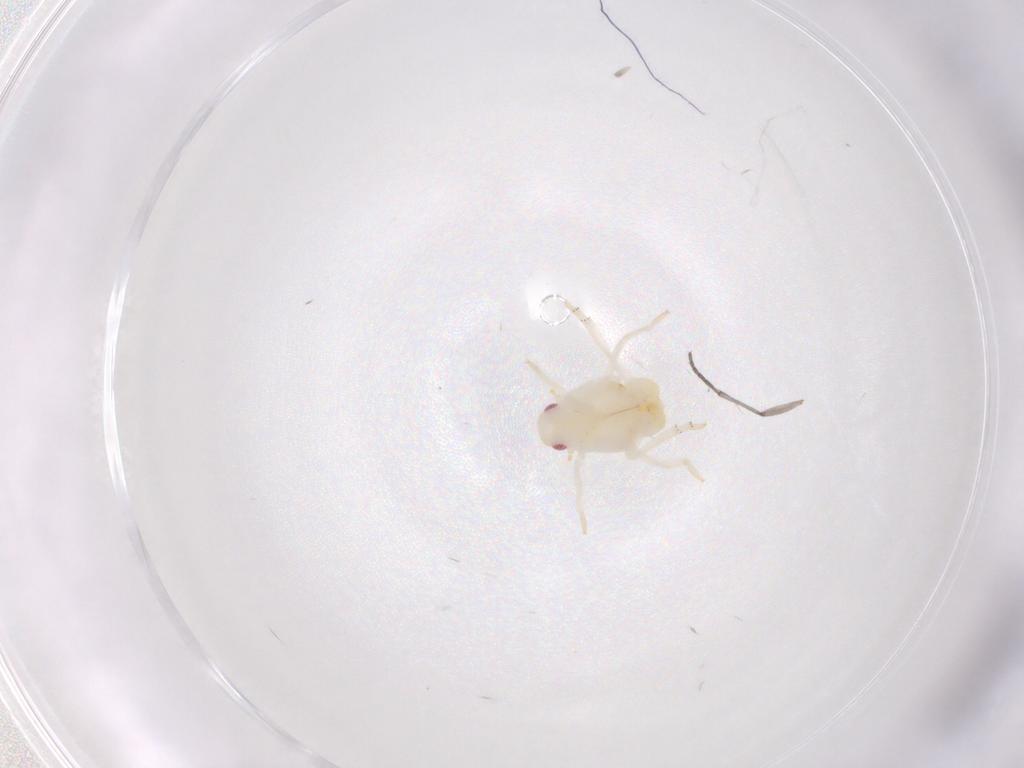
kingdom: Animalia
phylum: Arthropoda
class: Insecta
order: Hemiptera
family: Flatidae
